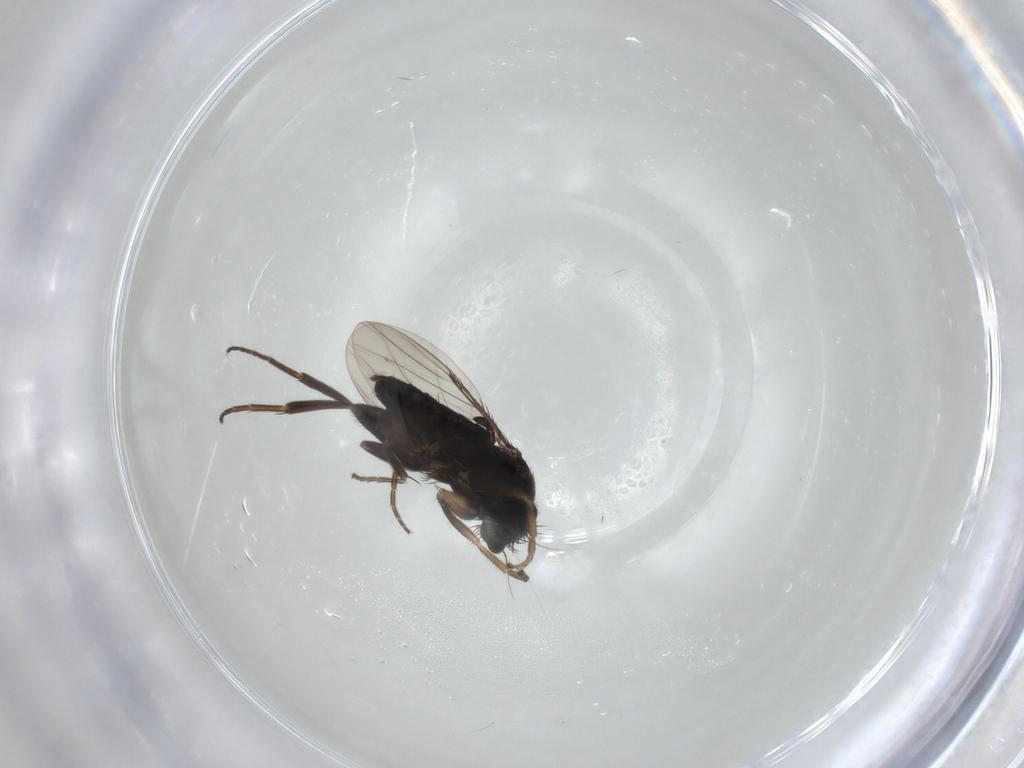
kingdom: Animalia
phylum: Arthropoda
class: Insecta
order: Diptera
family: Phoridae
